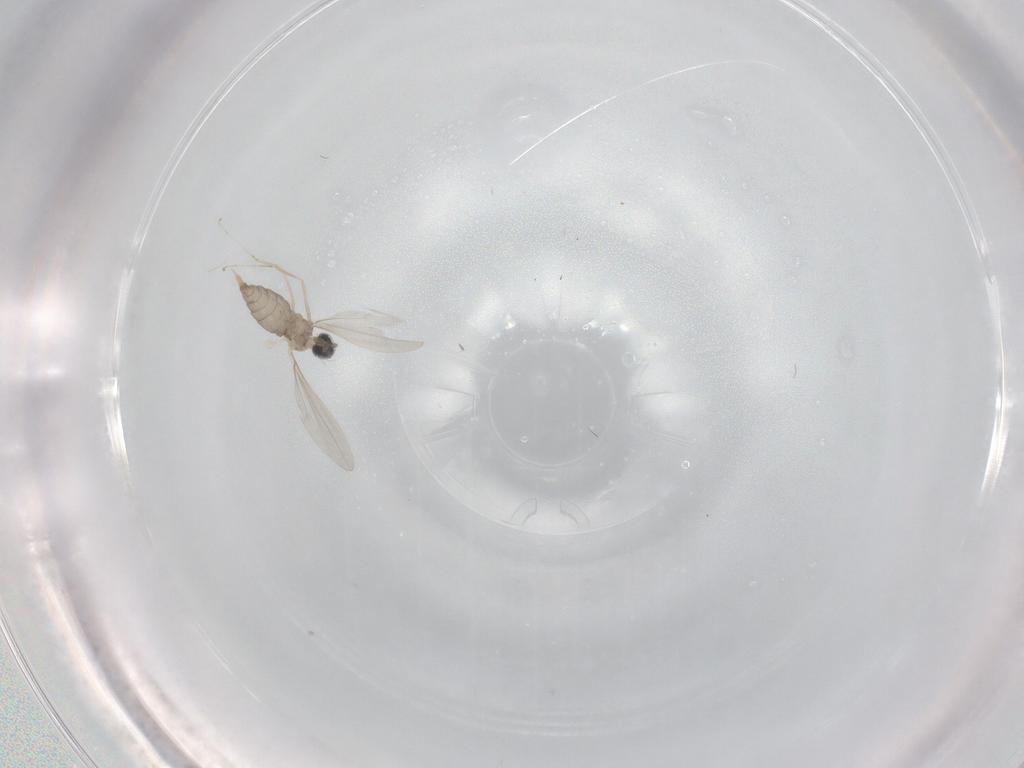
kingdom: Animalia
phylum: Arthropoda
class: Insecta
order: Diptera
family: Cecidomyiidae
